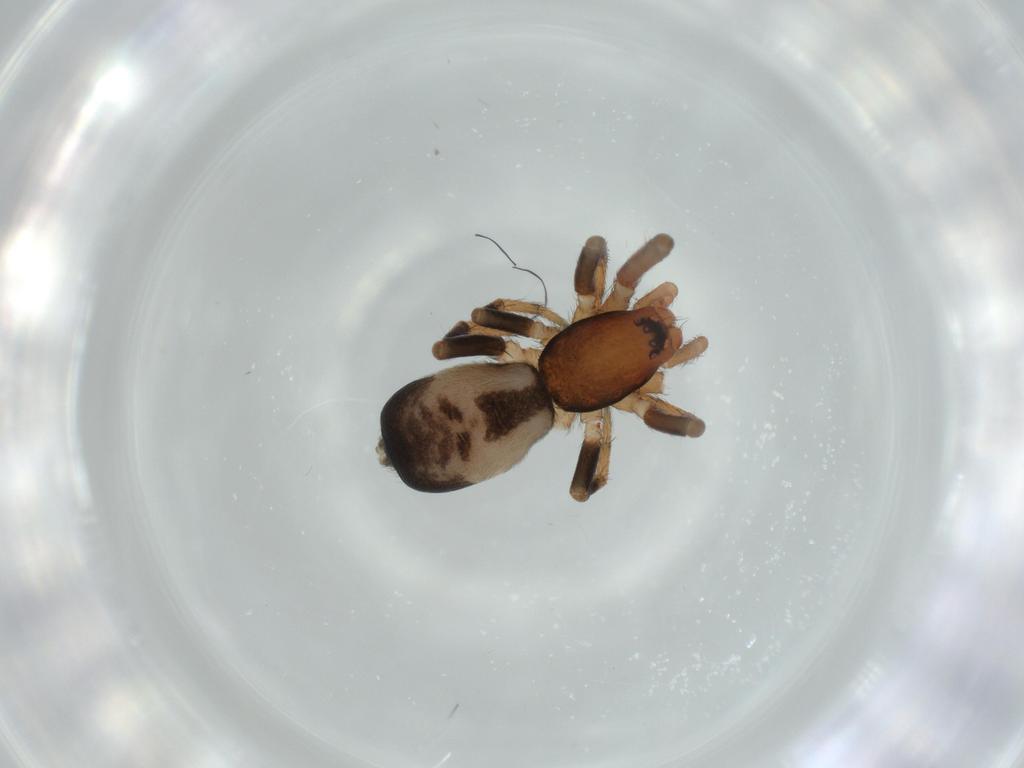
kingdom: Animalia
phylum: Arthropoda
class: Arachnida
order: Araneae
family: Gnaphosidae
